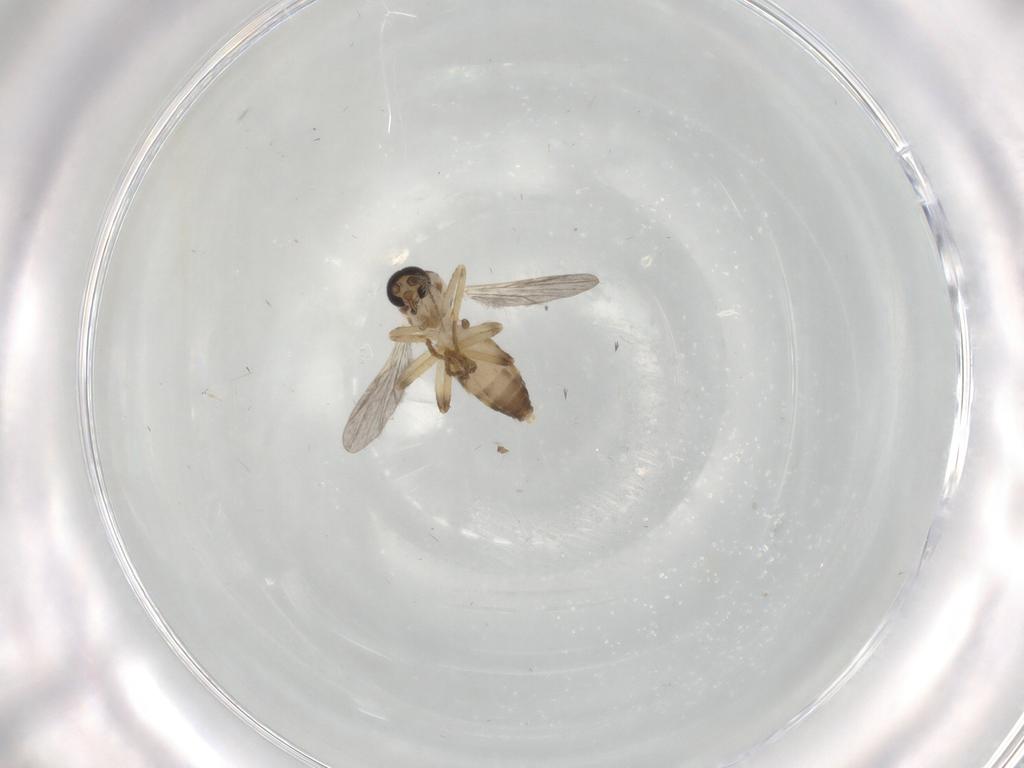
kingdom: Animalia
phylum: Arthropoda
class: Insecta
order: Diptera
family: Ceratopogonidae
